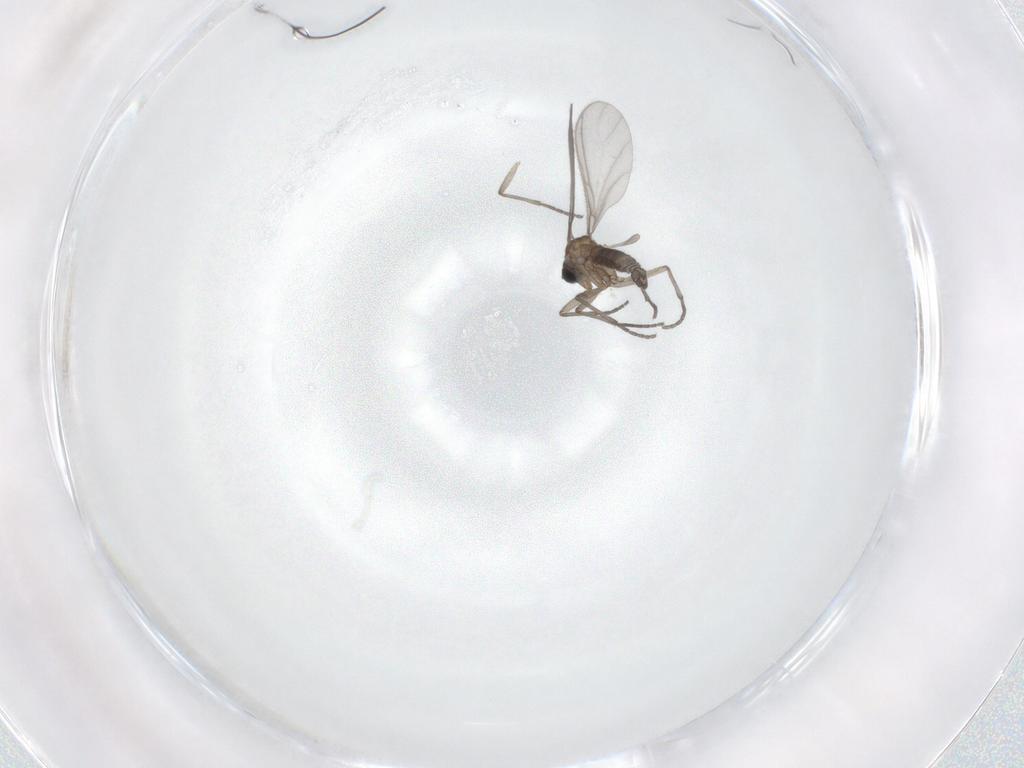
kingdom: Animalia
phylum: Arthropoda
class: Insecta
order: Diptera
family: Sciaridae
